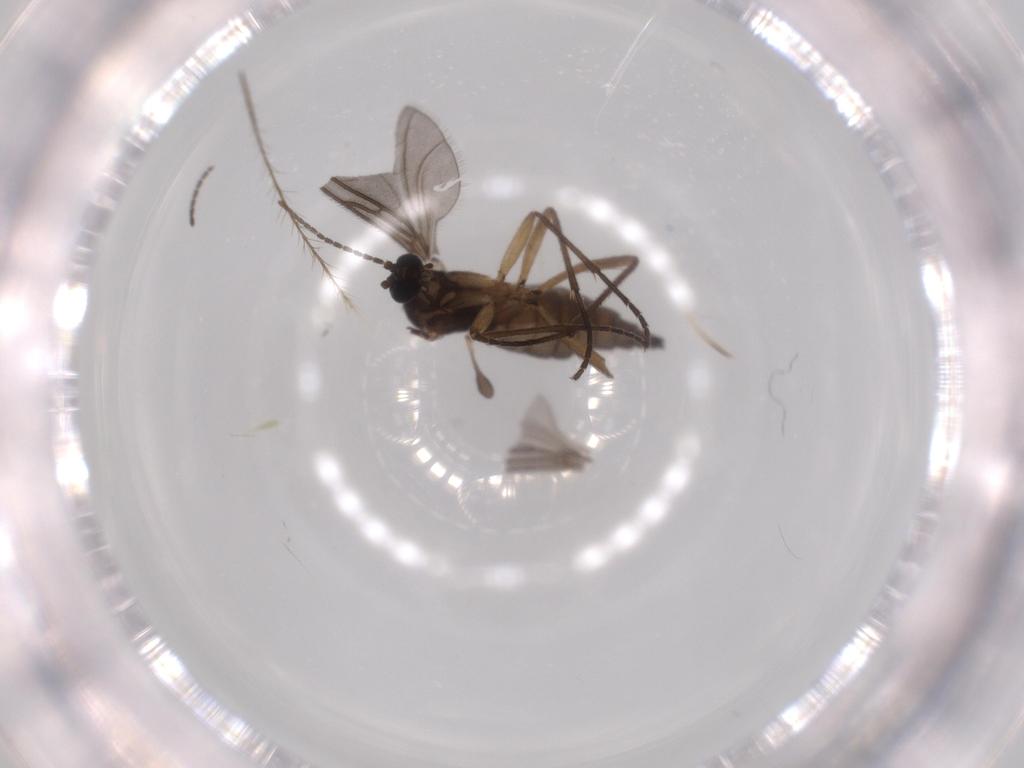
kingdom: Animalia
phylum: Arthropoda
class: Insecta
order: Diptera
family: Sciaridae
